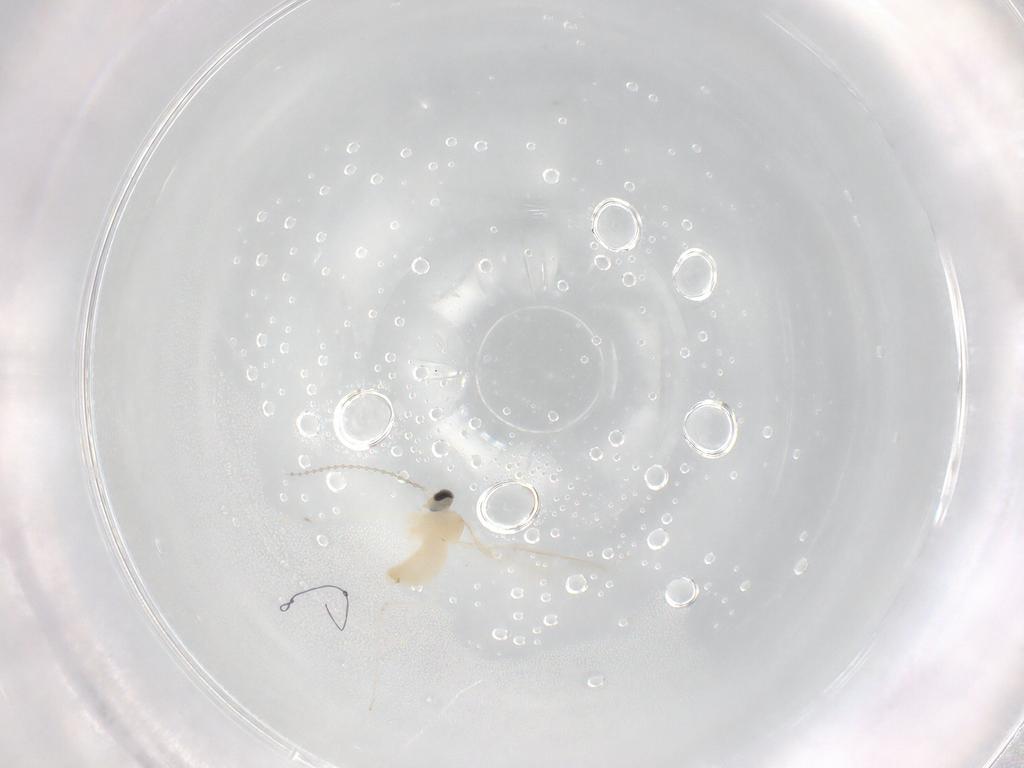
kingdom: Animalia
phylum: Arthropoda
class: Insecta
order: Diptera
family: Cecidomyiidae
